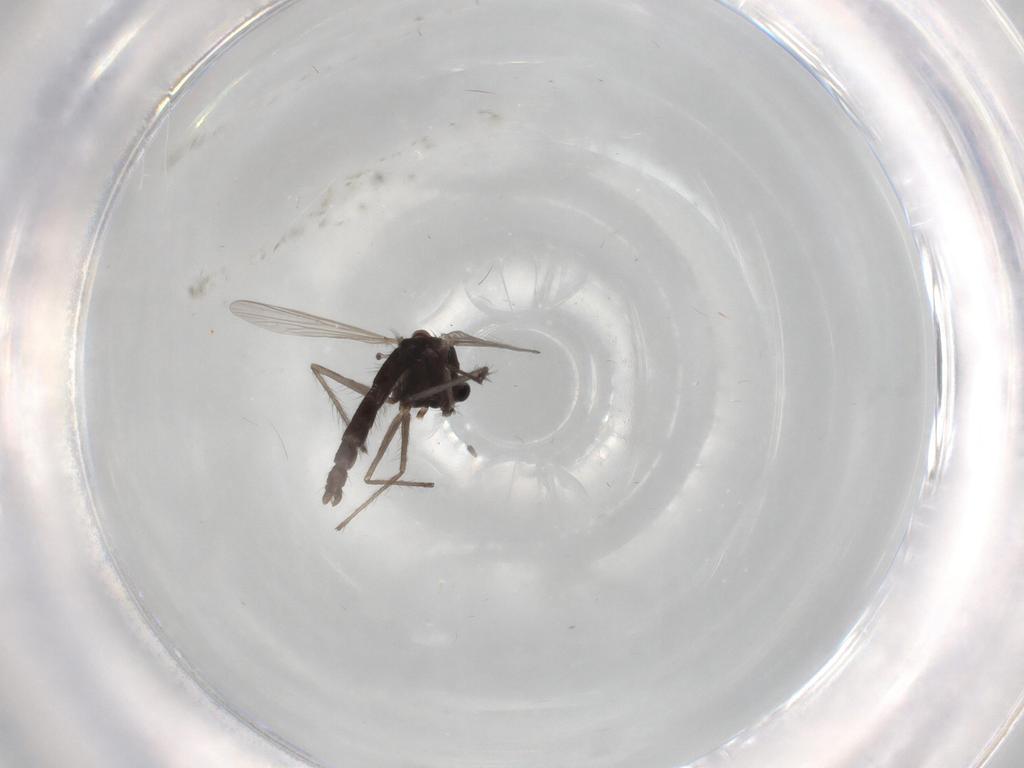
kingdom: Animalia
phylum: Arthropoda
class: Insecta
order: Diptera
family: Chironomidae
